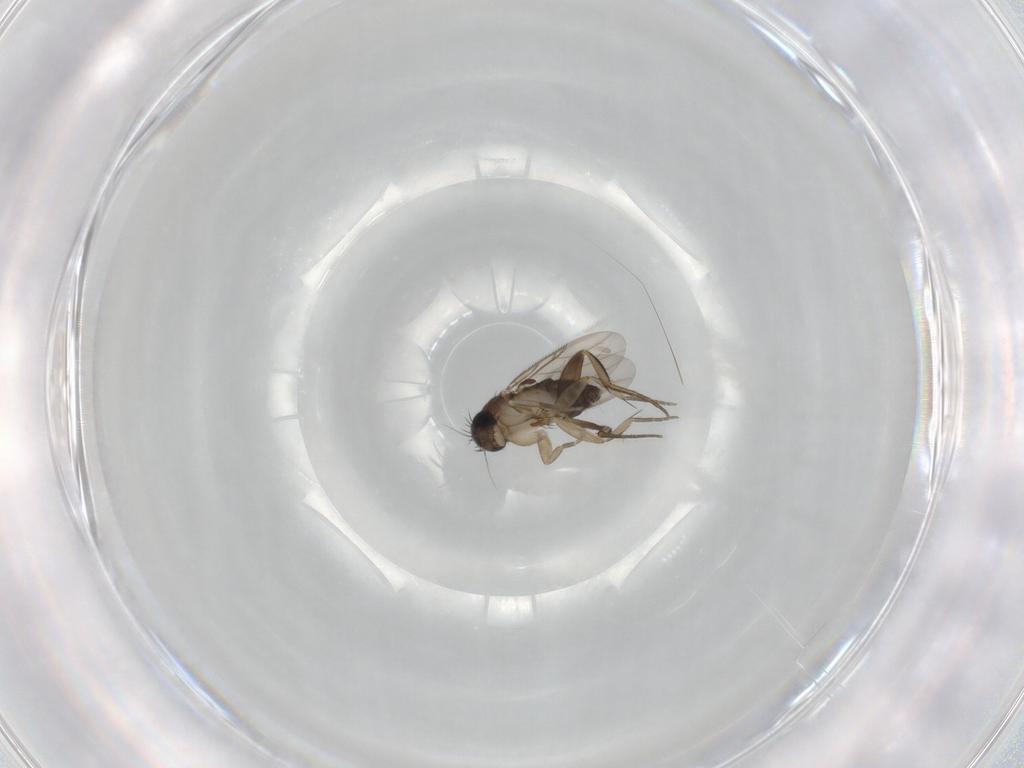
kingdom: Animalia
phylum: Arthropoda
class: Insecta
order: Diptera
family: Phoridae
